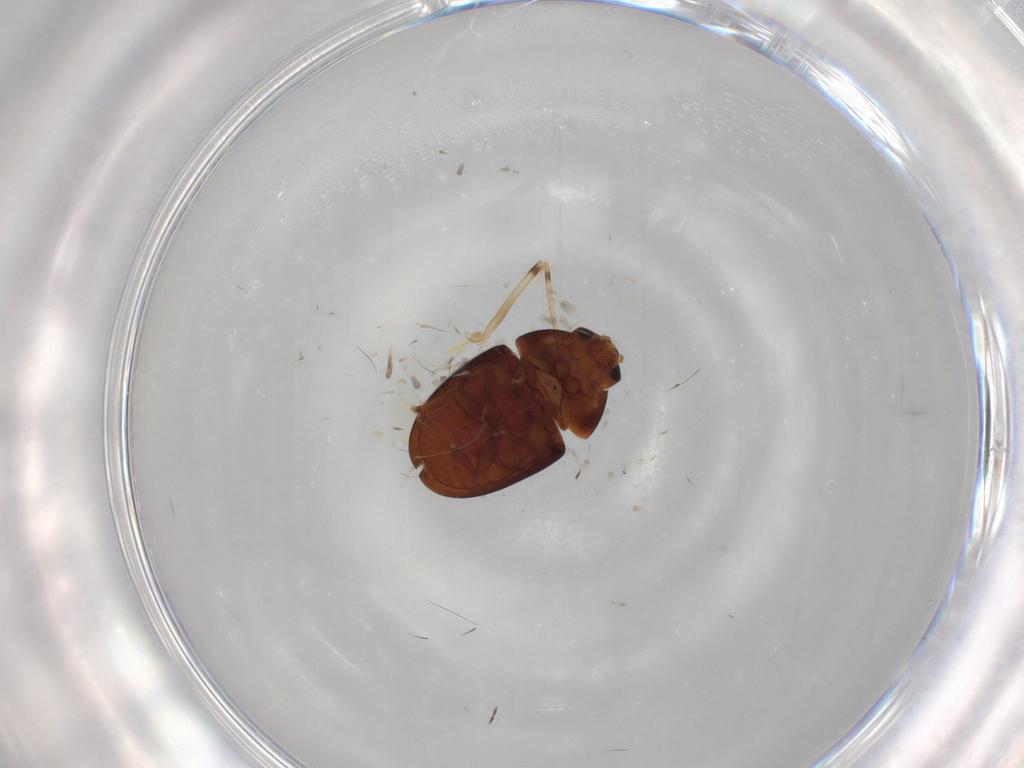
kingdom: Animalia
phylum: Arthropoda
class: Insecta
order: Coleoptera
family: Phalacridae
